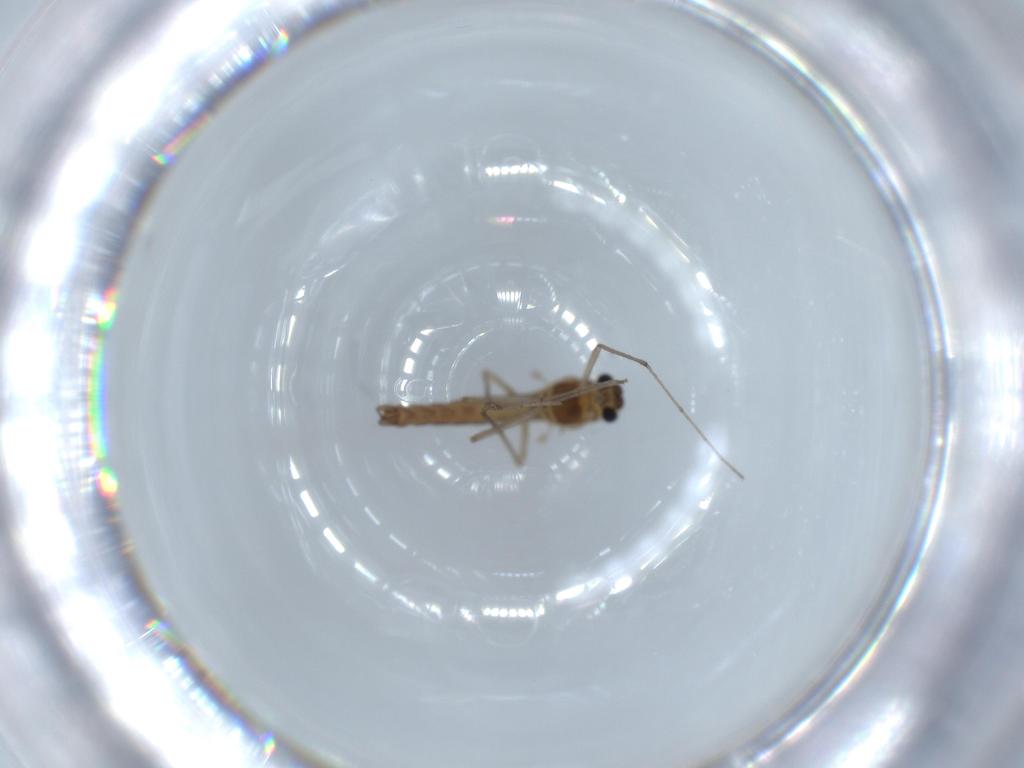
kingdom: Animalia
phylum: Arthropoda
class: Insecta
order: Diptera
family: Chironomidae
